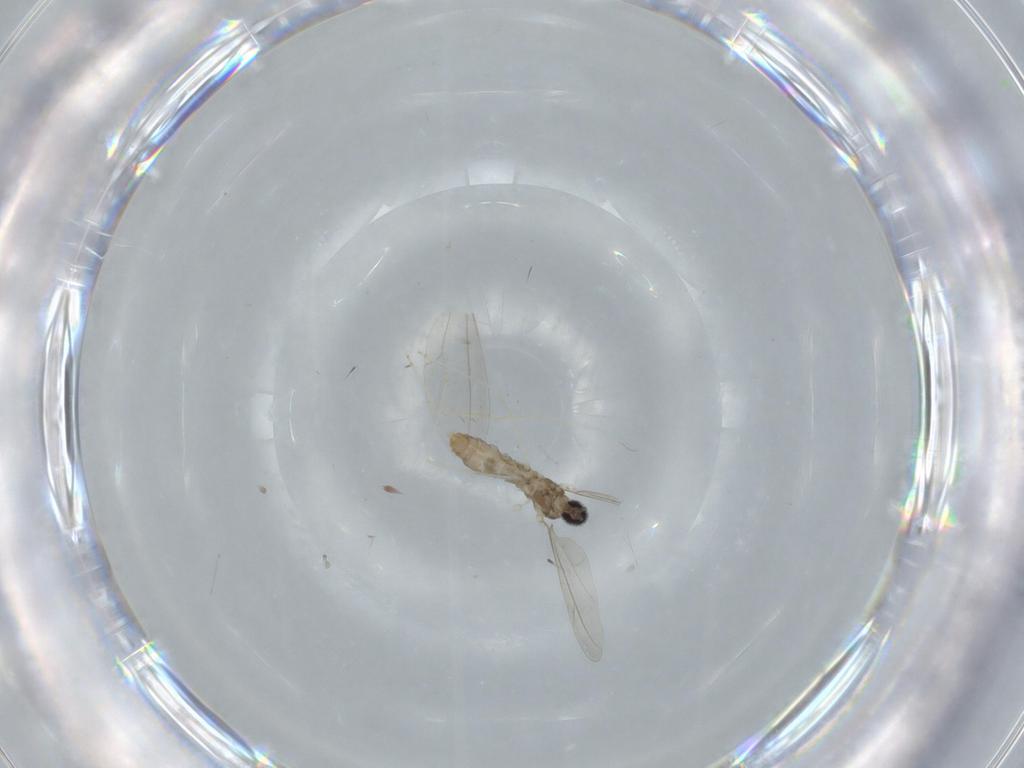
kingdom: Animalia
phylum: Arthropoda
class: Insecta
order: Diptera
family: Cecidomyiidae
